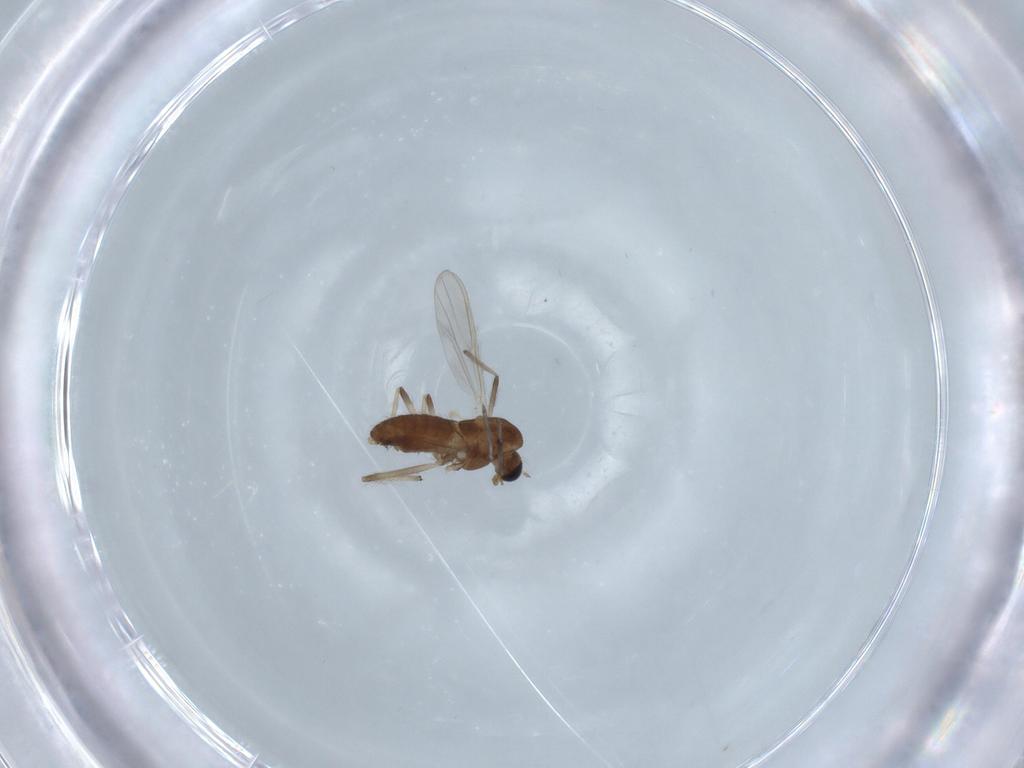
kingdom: Animalia
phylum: Arthropoda
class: Insecta
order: Diptera
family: Chironomidae
